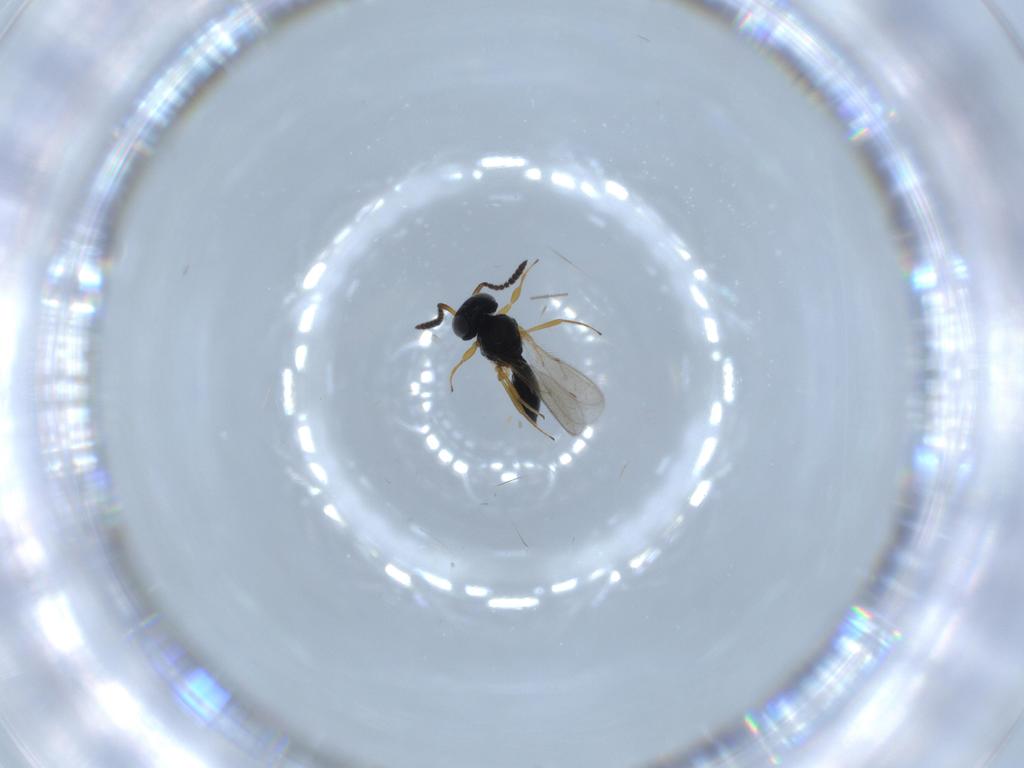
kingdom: Animalia
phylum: Arthropoda
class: Insecta
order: Hymenoptera
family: Scelionidae
